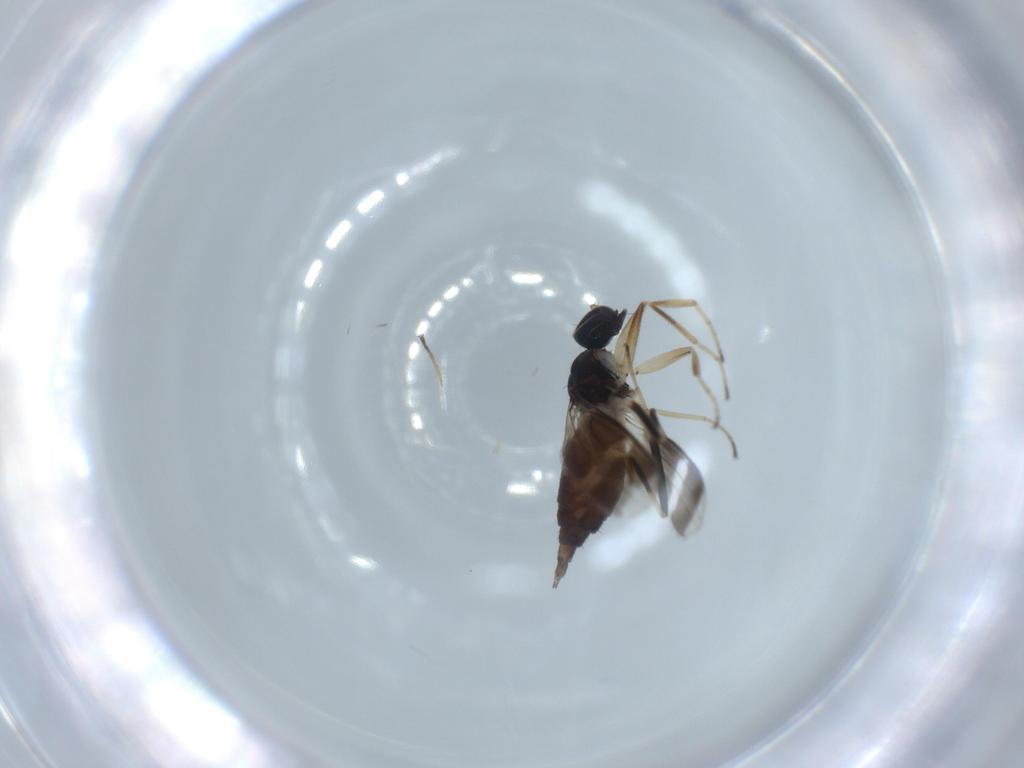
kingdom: Animalia
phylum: Arthropoda
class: Insecta
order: Diptera
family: Hybotidae
